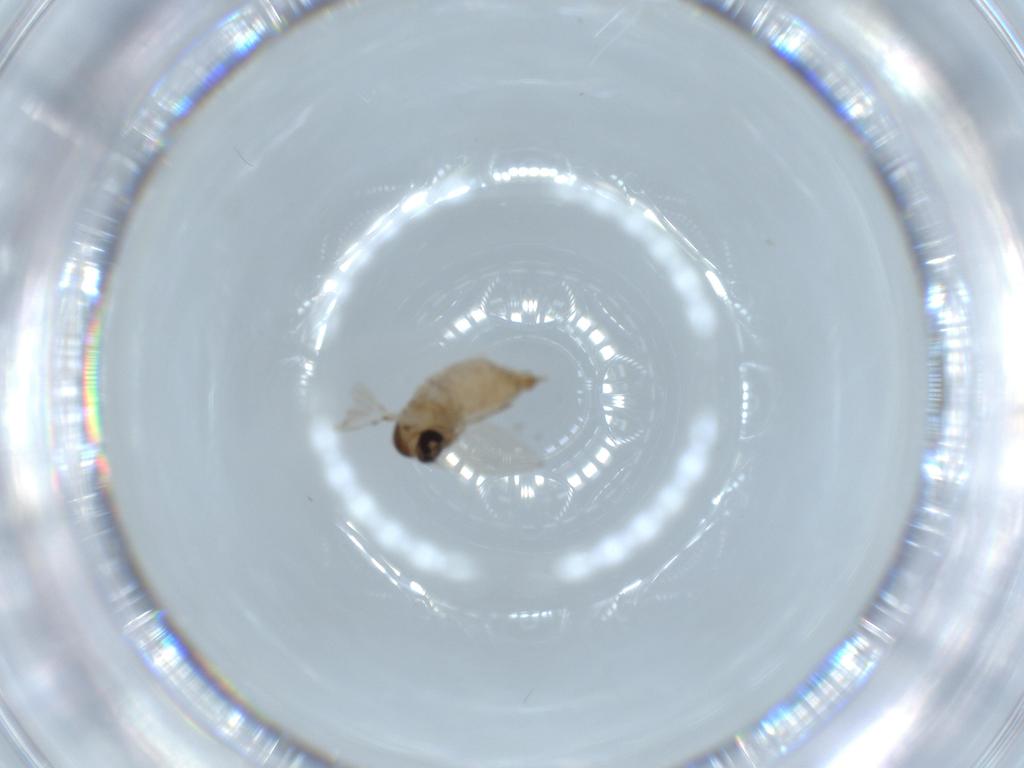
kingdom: Animalia
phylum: Arthropoda
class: Insecta
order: Diptera
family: Psychodidae
